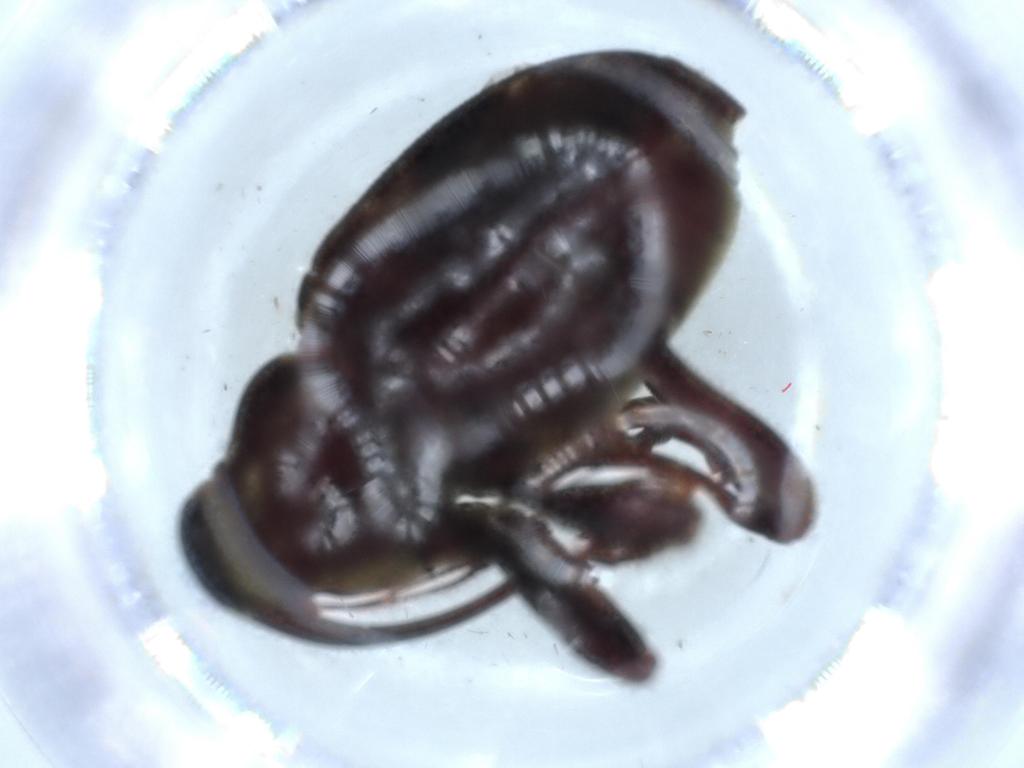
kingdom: Animalia
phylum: Arthropoda
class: Insecta
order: Coleoptera
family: Curculionidae
